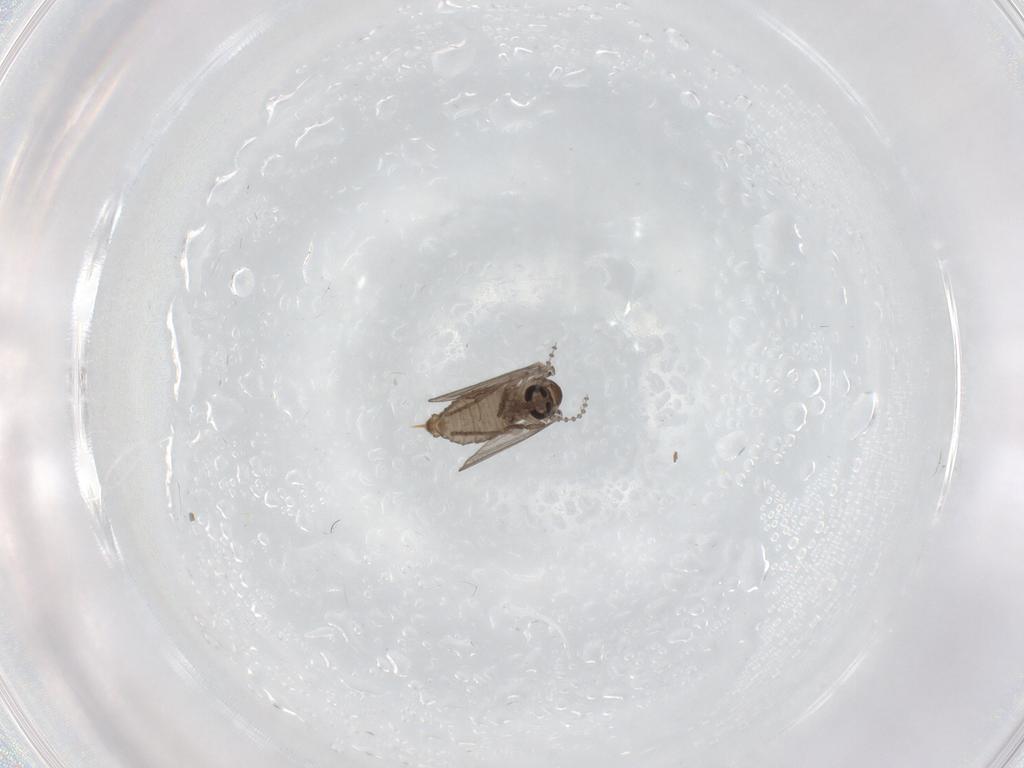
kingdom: Animalia
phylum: Arthropoda
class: Insecta
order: Diptera
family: Psychodidae
